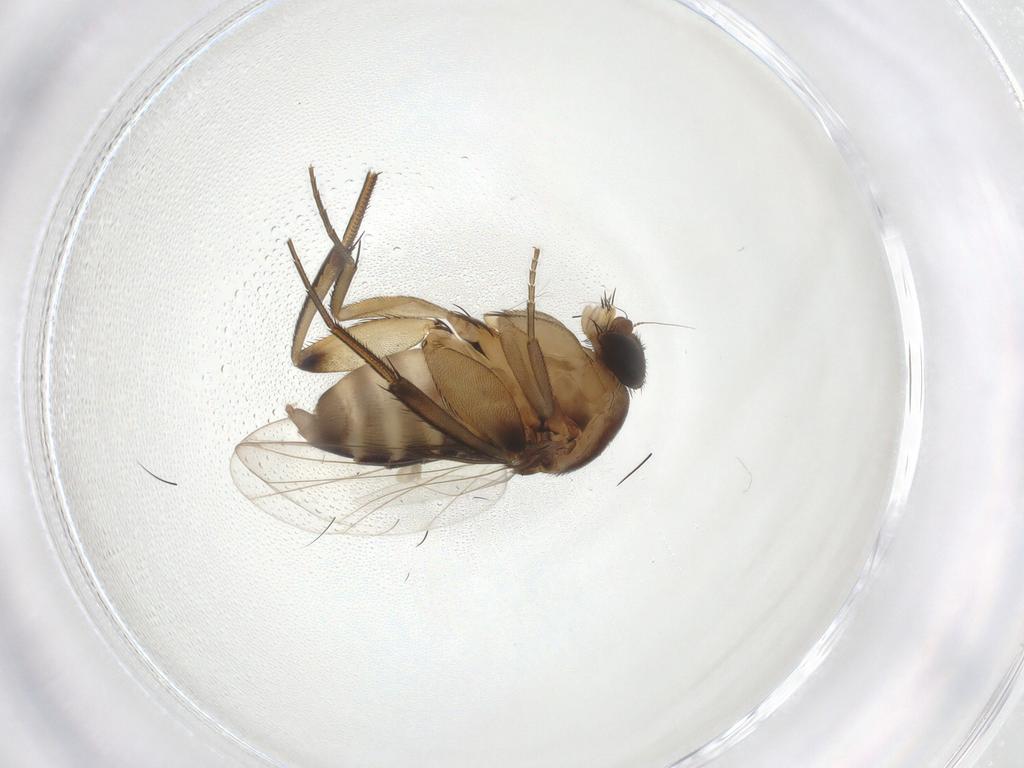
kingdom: Animalia
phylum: Arthropoda
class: Insecta
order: Diptera
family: Phoridae
